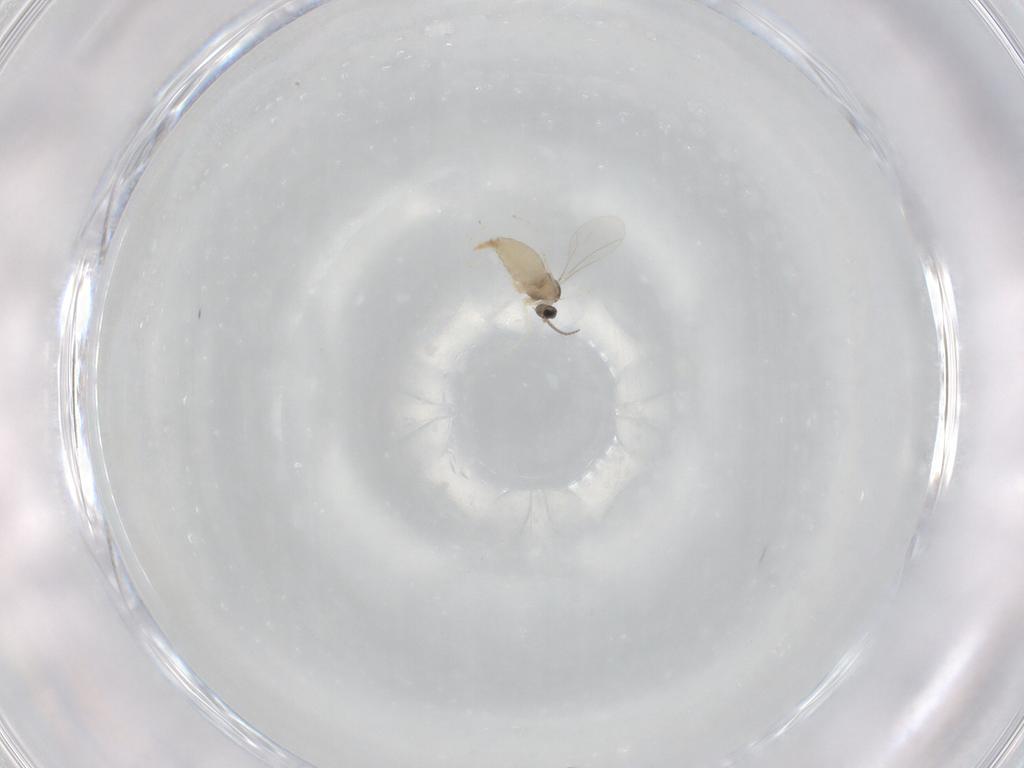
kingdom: Animalia
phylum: Arthropoda
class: Insecta
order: Diptera
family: Cecidomyiidae
